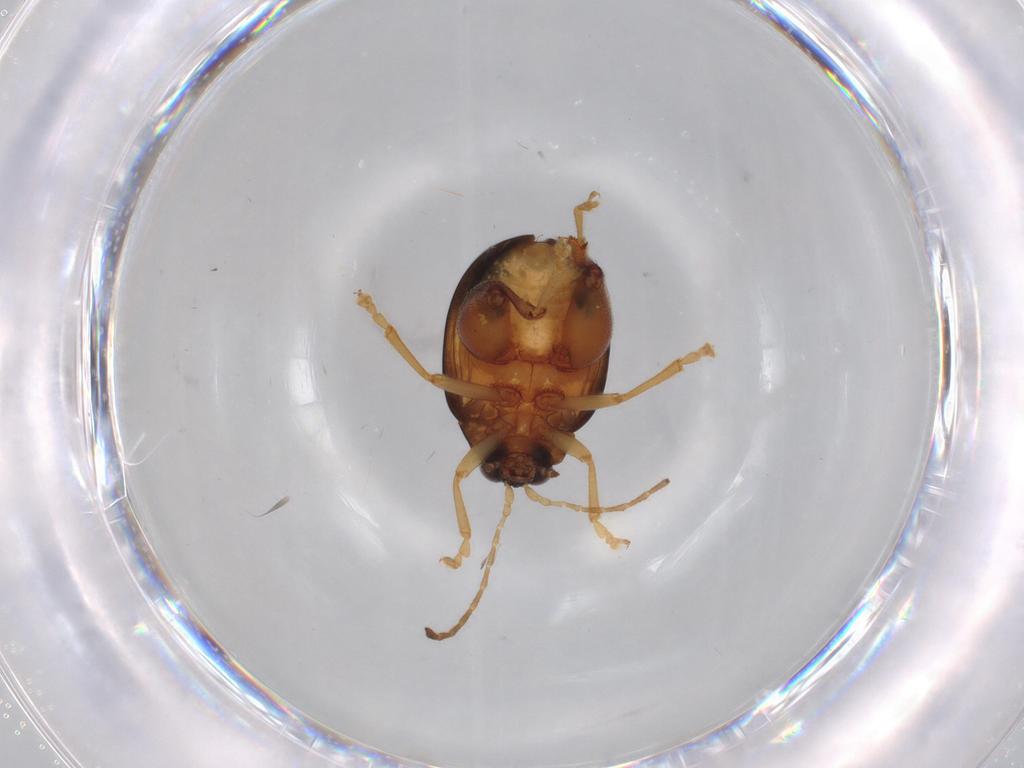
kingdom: Animalia
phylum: Arthropoda
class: Insecta
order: Coleoptera
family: Chrysomelidae
